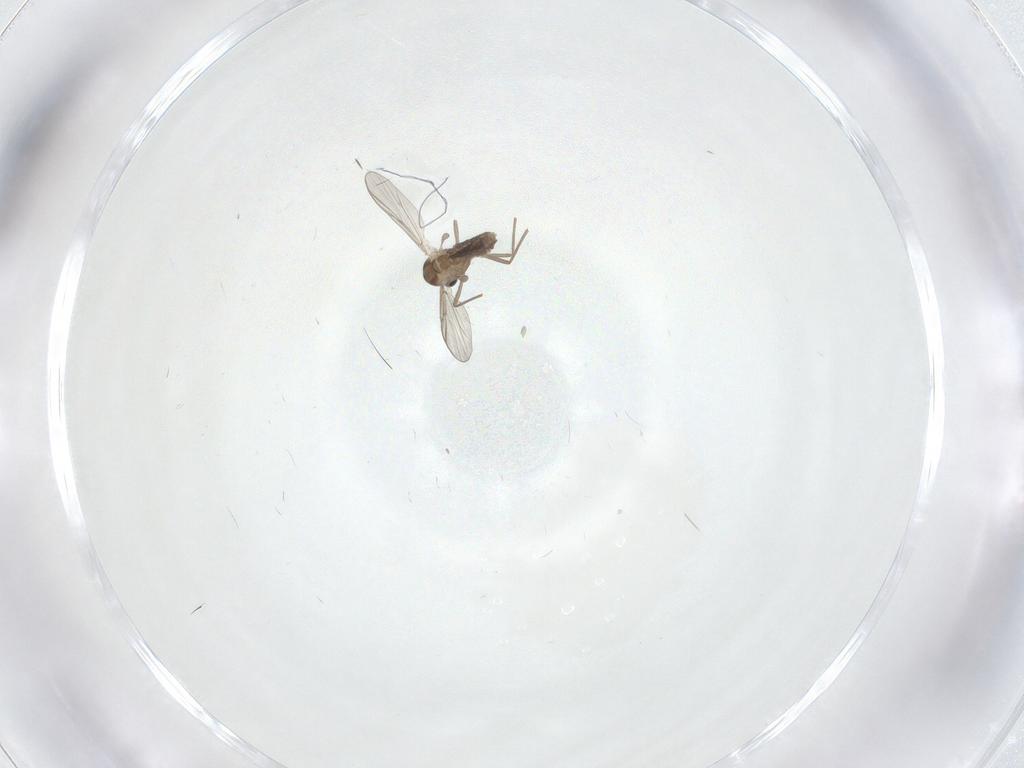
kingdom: Animalia
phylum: Arthropoda
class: Insecta
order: Diptera
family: Chironomidae
